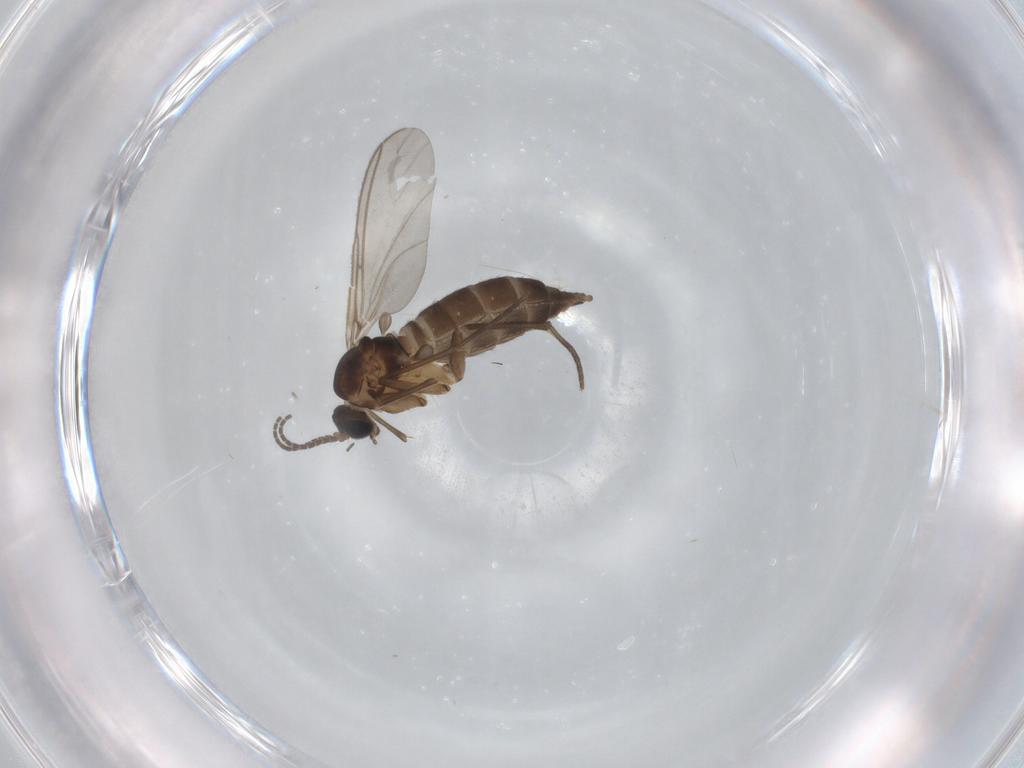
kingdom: Animalia
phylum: Arthropoda
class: Insecta
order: Diptera
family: Sciaridae
